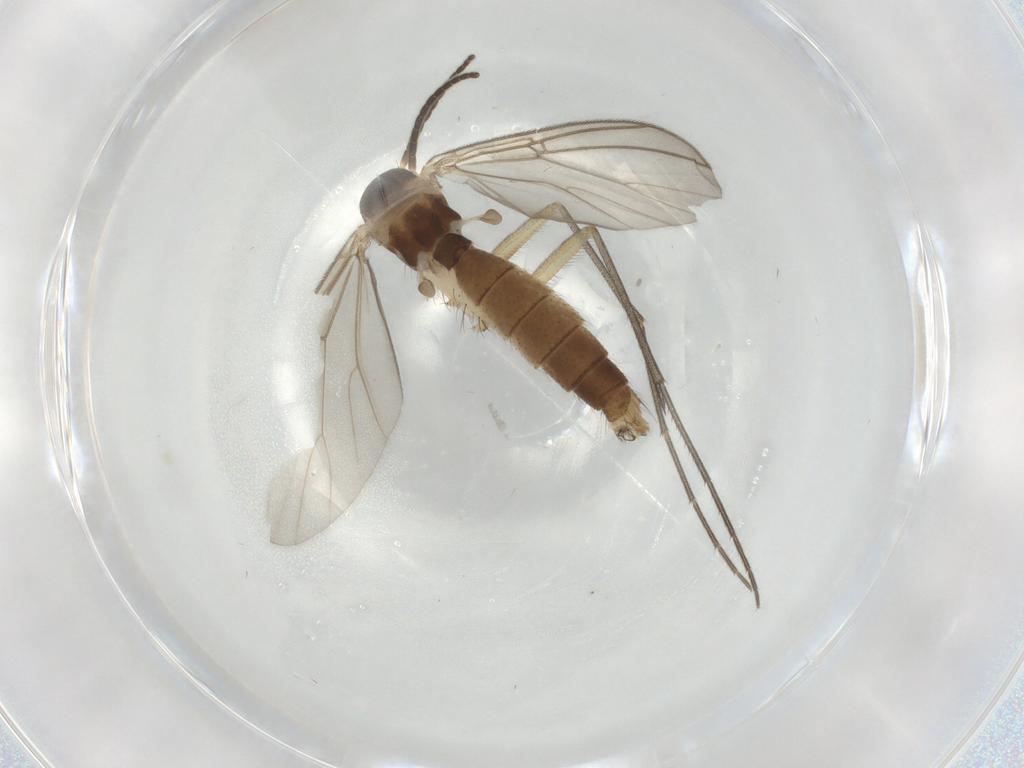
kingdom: Animalia
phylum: Arthropoda
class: Insecta
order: Diptera
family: Mycetophilidae
